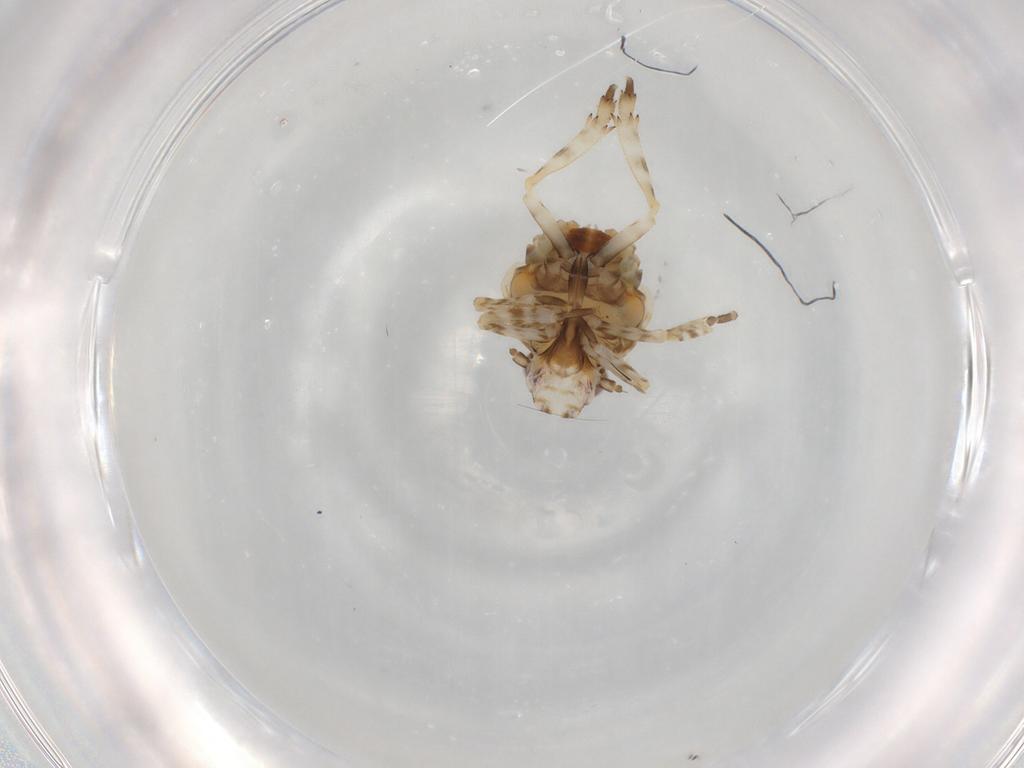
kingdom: Animalia
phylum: Arthropoda
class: Insecta
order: Hemiptera
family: Eurybrachidae
